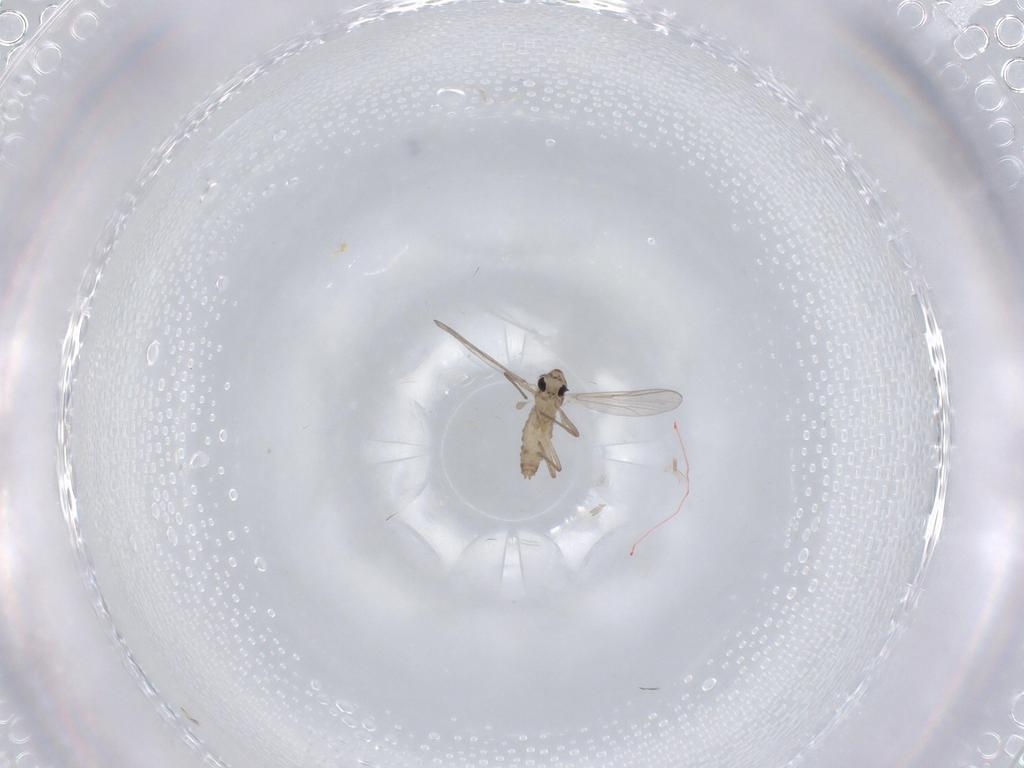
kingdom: Animalia
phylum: Arthropoda
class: Insecta
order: Diptera
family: Chironomidae
